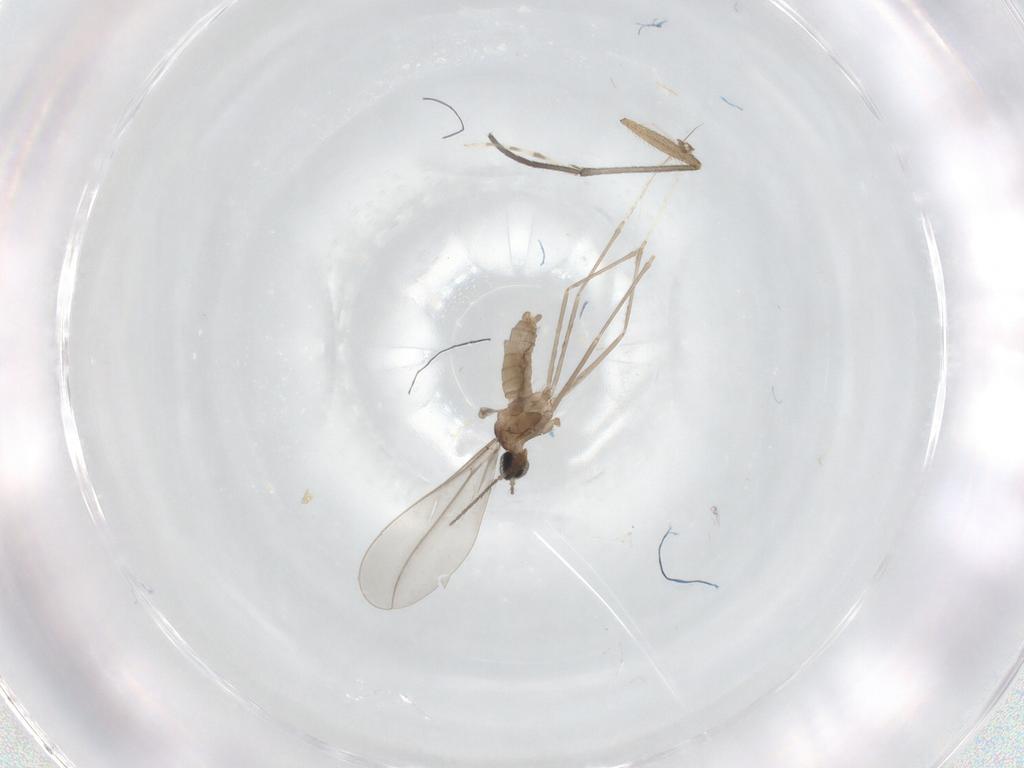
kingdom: Animalia
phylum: Arthropoda
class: Insecta
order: Diptera
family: Cecidomyiidae
